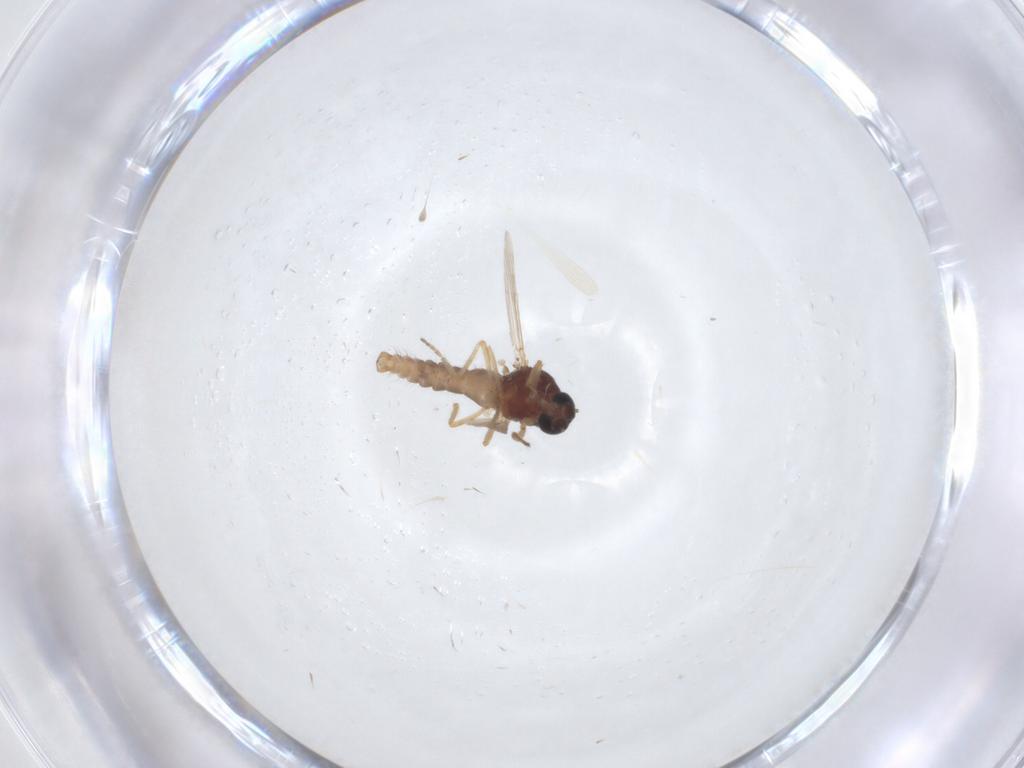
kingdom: Animalia
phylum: Arthropoda
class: Insecta
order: Diptera
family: Ceratopogonidae
